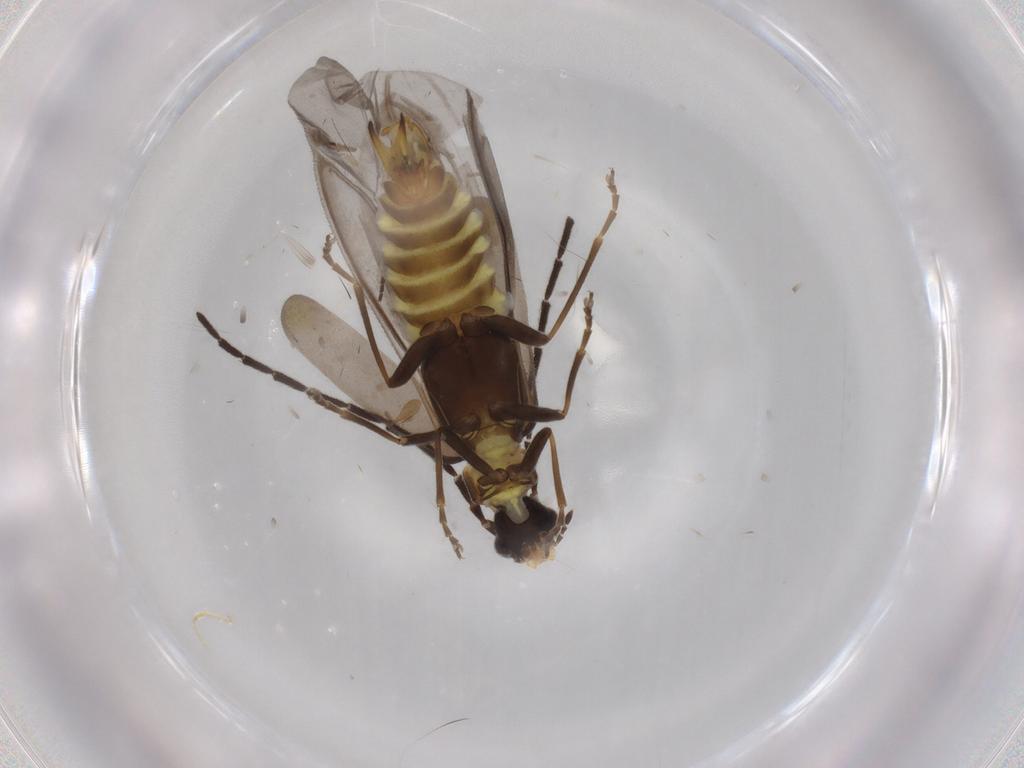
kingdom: Animalia
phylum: Arthropoda
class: Insecta
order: Coleoptera
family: Cantharidae
